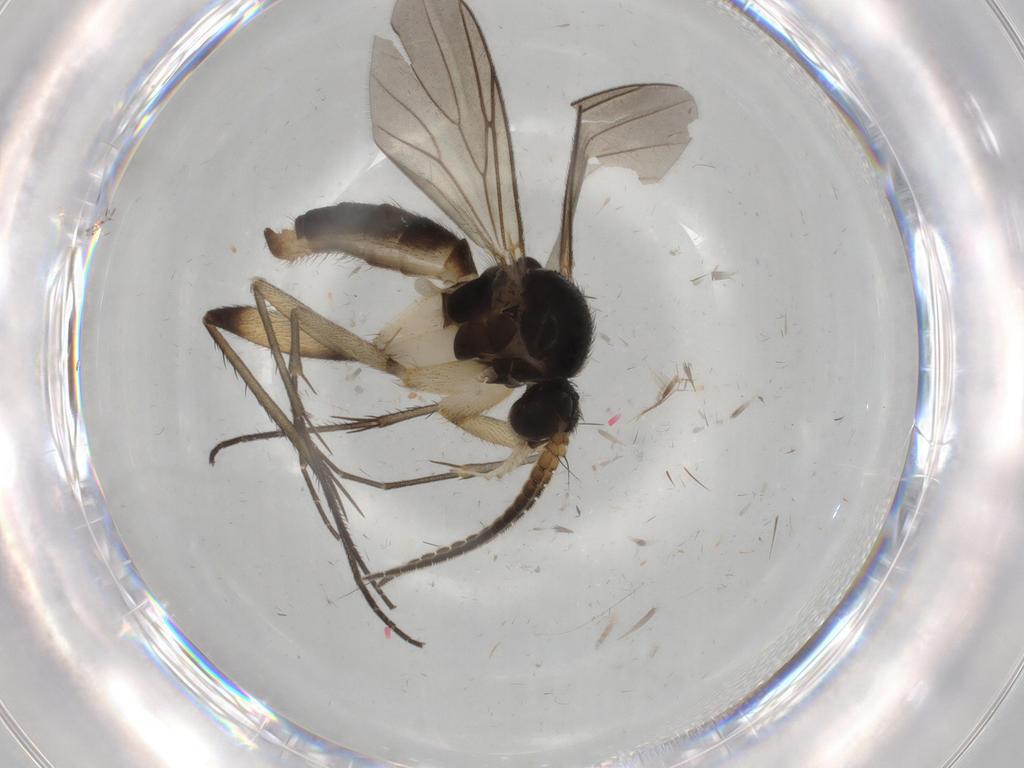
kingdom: Animalia
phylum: Arthropoda
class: Insecta
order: Diptera
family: Cecidomyiidae
